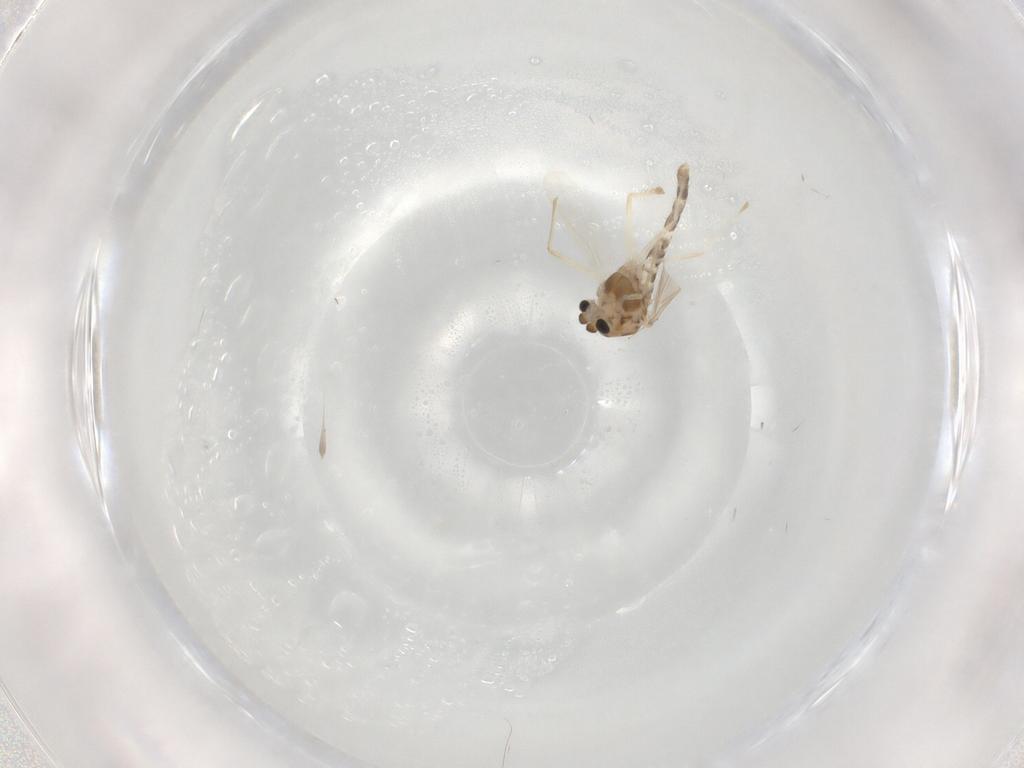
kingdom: Animalia
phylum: Arthropoda
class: Insecta
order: Diptera
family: Chironomidae
